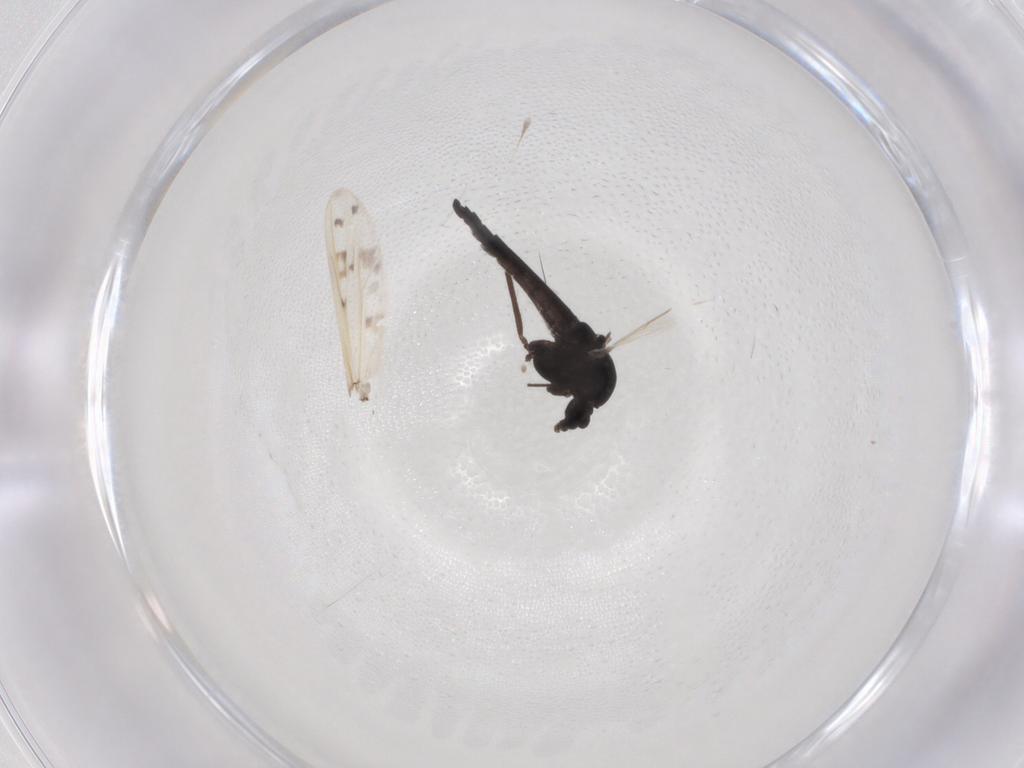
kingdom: Animalia
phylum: Arthropoda
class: Insecta
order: Diptera
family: Chironomidae
